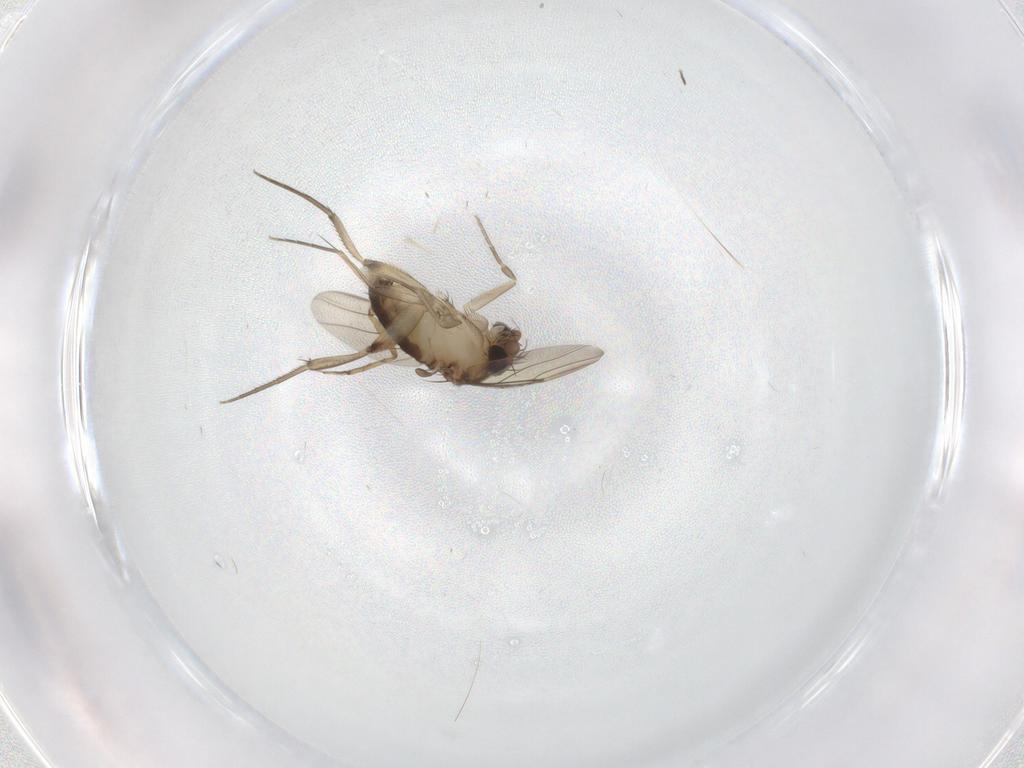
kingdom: Animalia
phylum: Arthropoda
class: Insecta
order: Diptera
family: Phoridae
